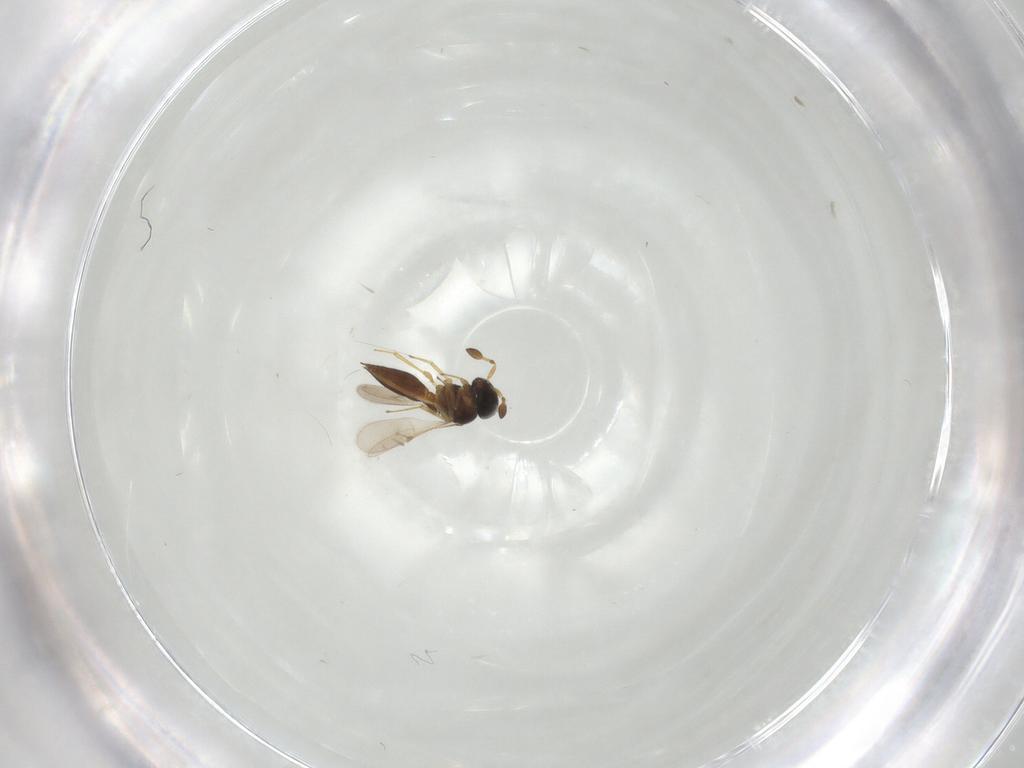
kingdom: Animalia
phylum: Arthropoda
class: Insecta
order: Hymenoptera
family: Scelionidae
